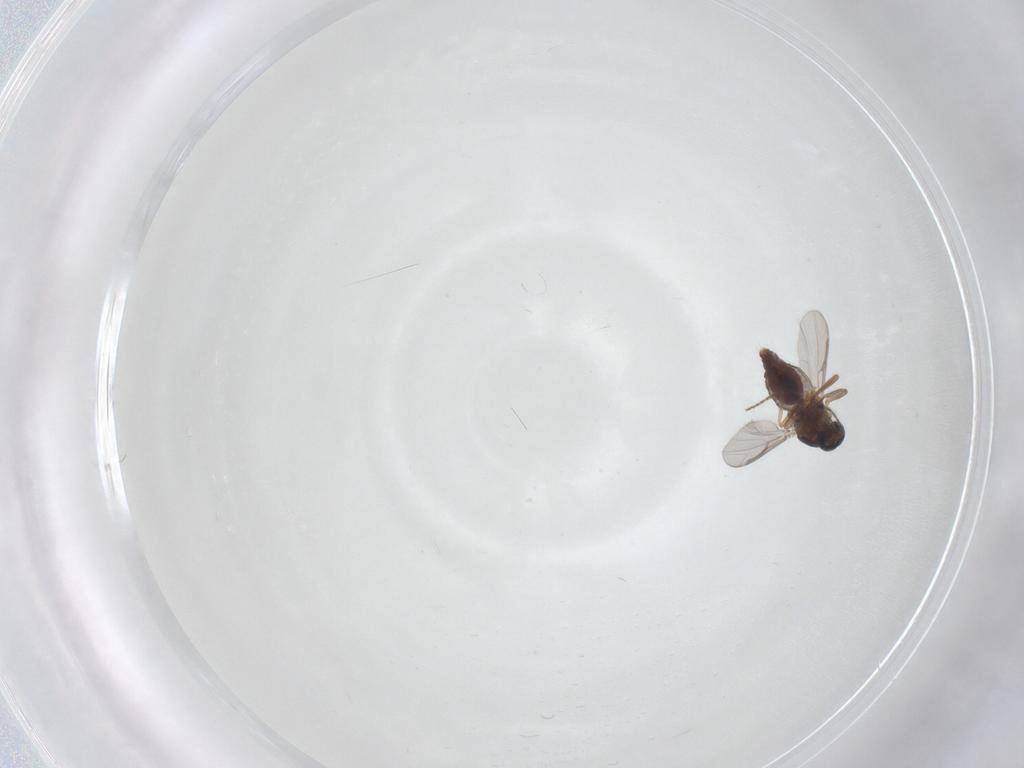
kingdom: Animalia
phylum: Arthropoda
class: Insecta
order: Diptera
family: Ceratopogonidae
